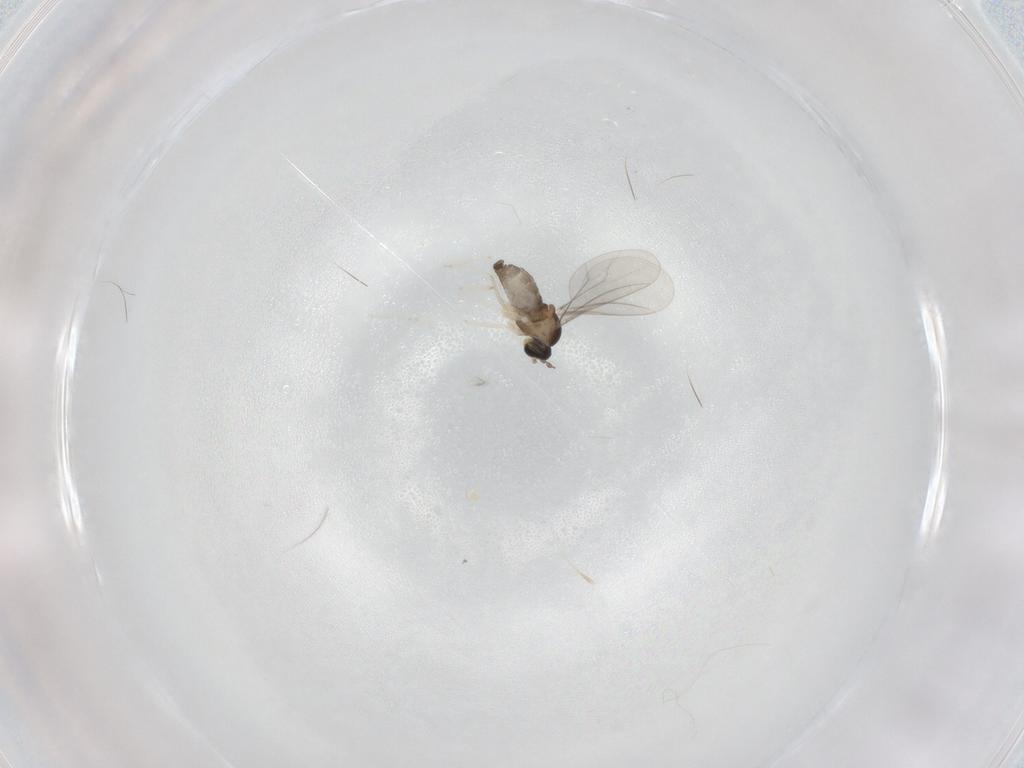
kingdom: Animalia
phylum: Arthropoda
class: Insecta
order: Diptera
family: Cecidomyiidae
